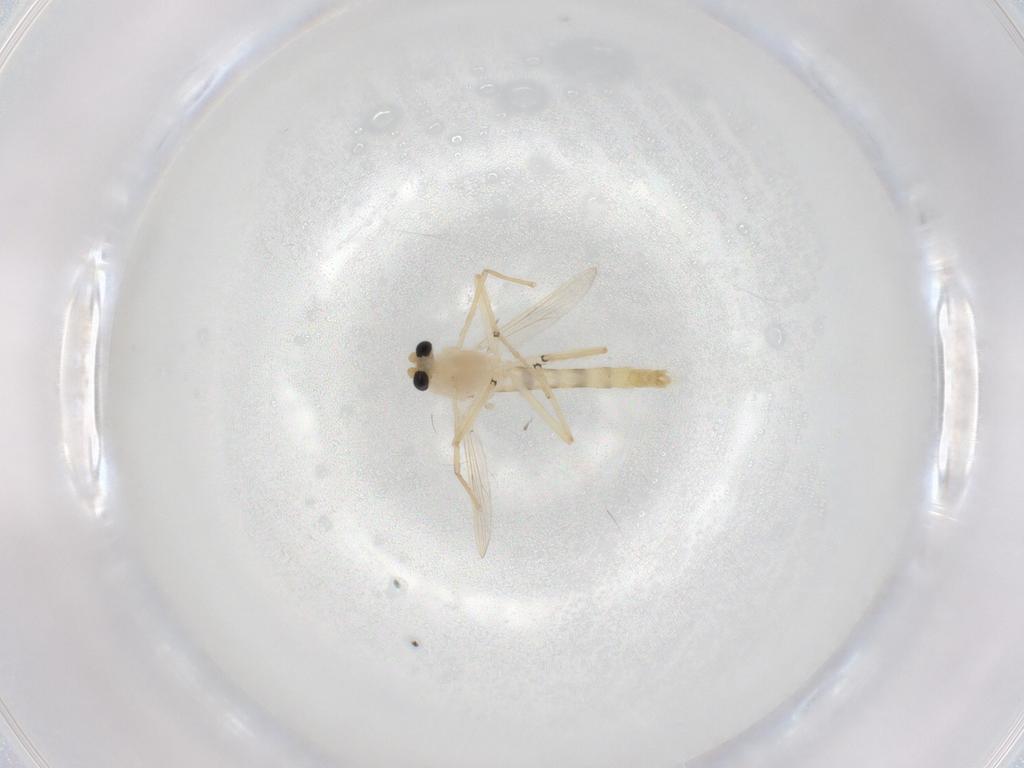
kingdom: Animalia
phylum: Arthropoda
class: Insecta
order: Diptera
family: Chironomidae
